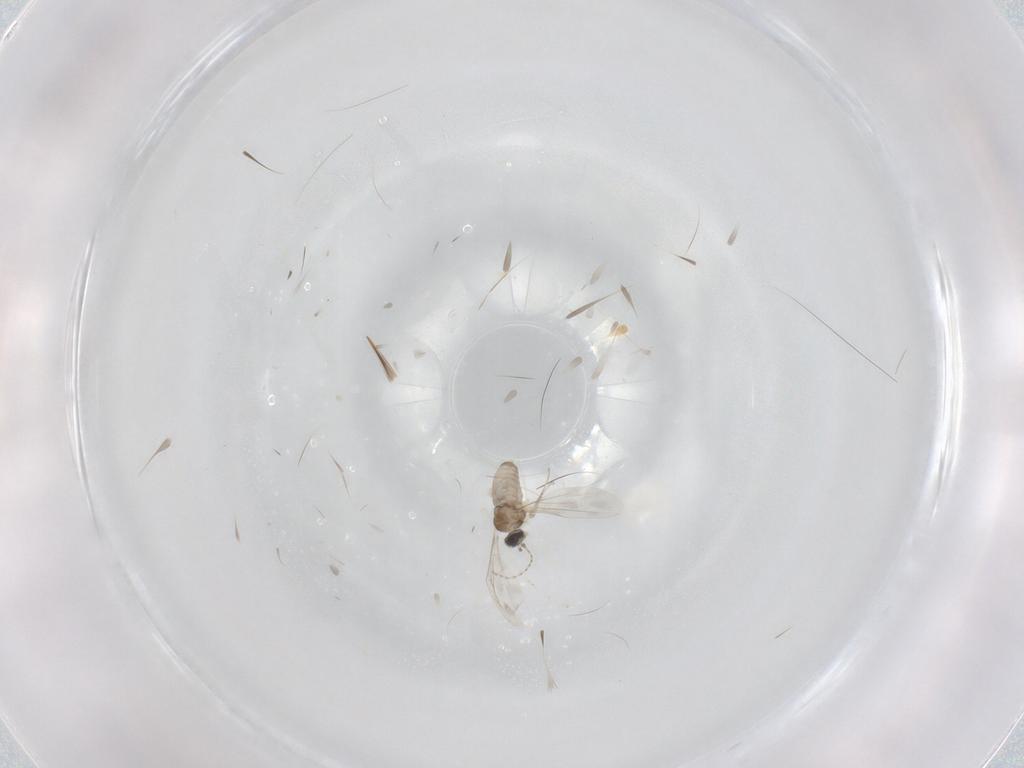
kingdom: Animalia
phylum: Arthropoda
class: Insecta
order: Diptera
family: Cecidomyiidae
